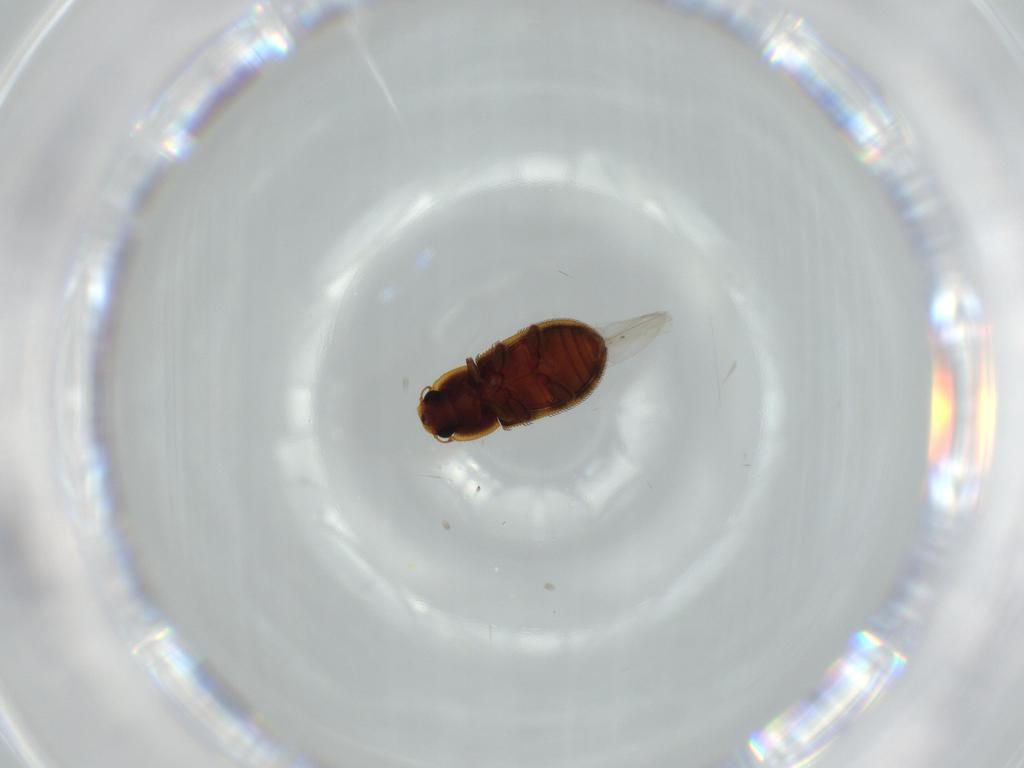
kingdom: Animalia
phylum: Arthropoda
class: Insecta
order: Coleoptera
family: Zopheridae
